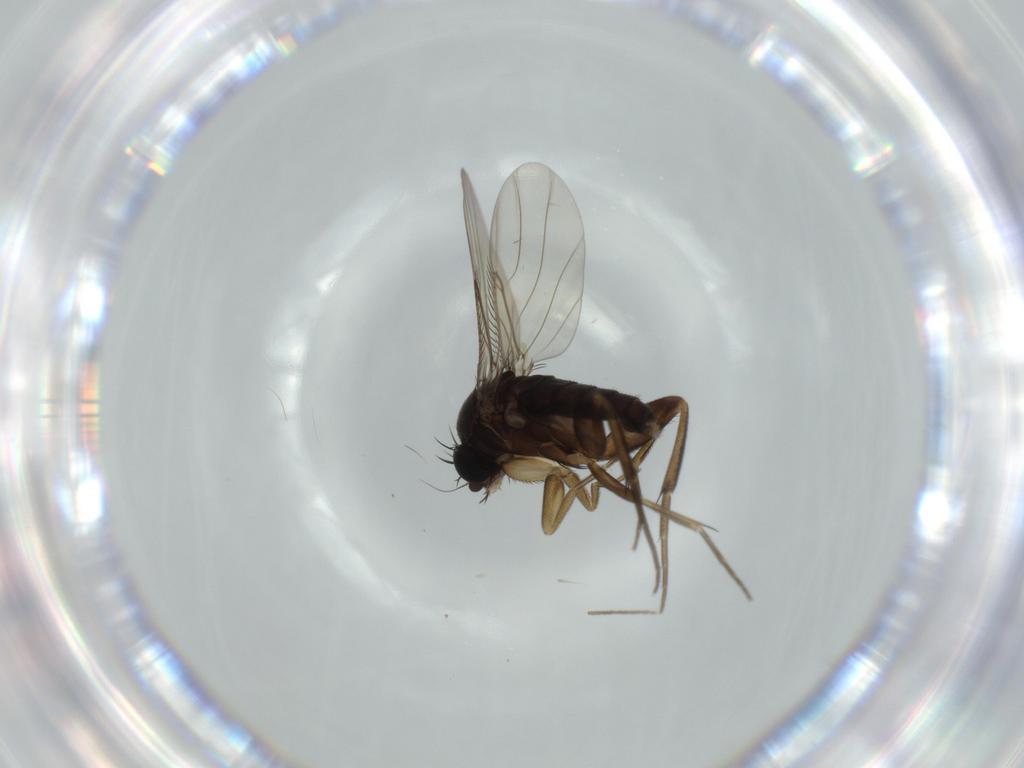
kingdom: Animalia
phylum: Arthropoda
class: Insecta
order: Diptera
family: Phoridae
